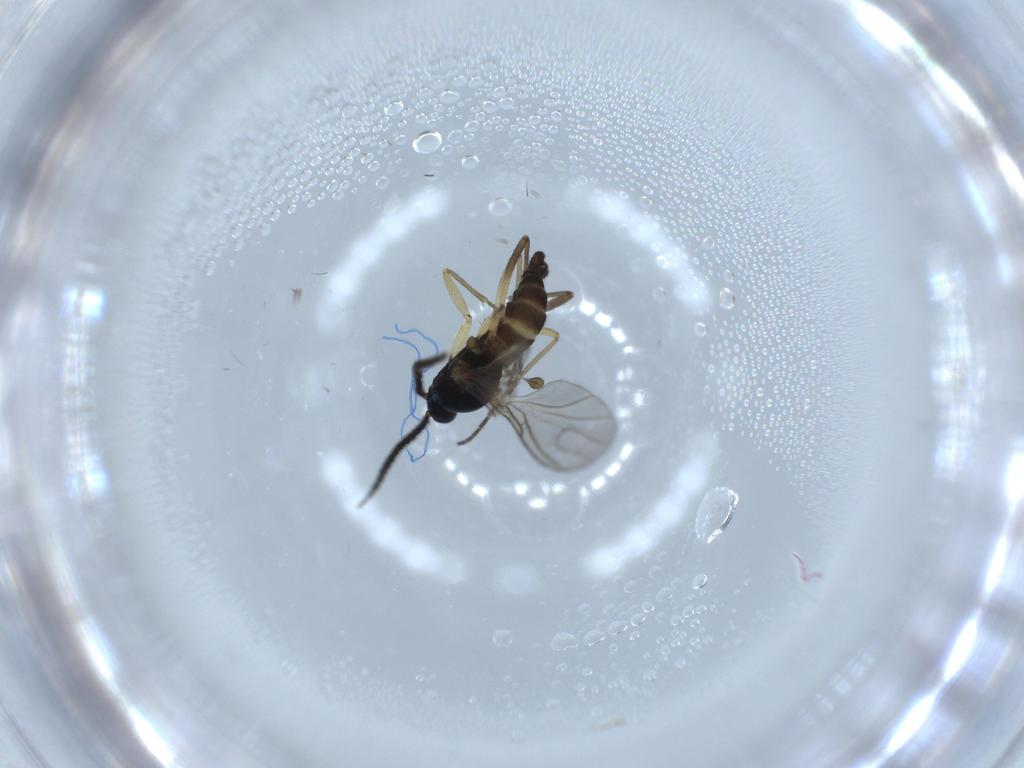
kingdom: Animalia
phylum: Arthropoda
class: Insecta
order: Diptera
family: Sciaridae
